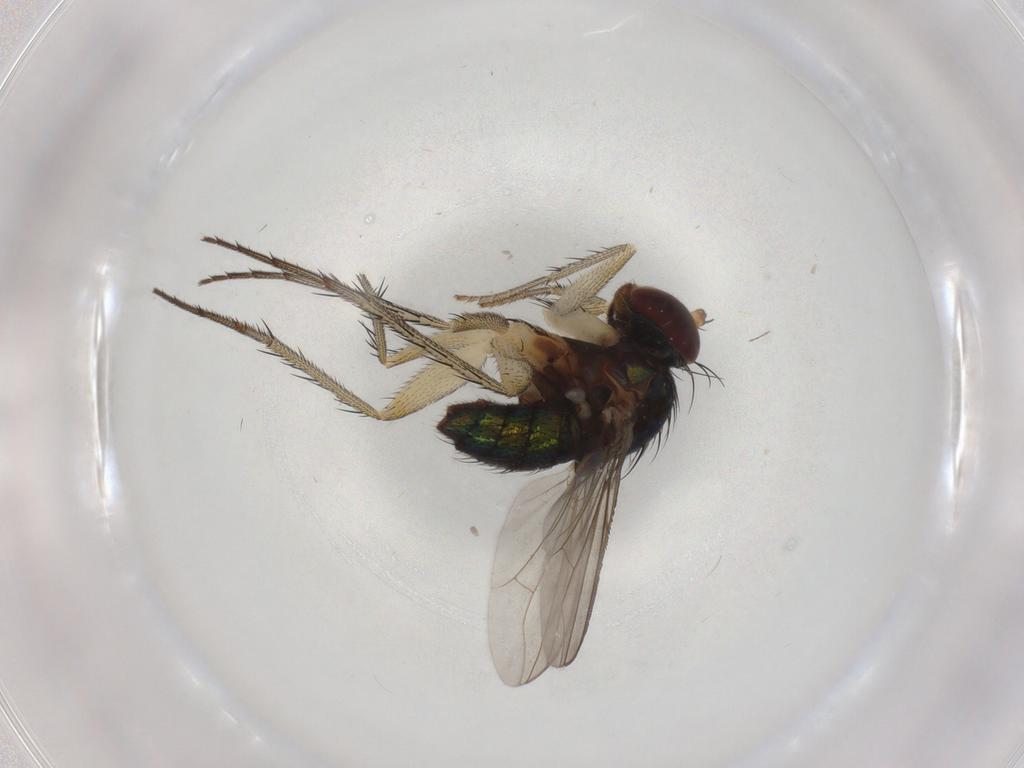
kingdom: Animalia
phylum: Arthropoda
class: Insecta
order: Diptera
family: Dolichopodidae
